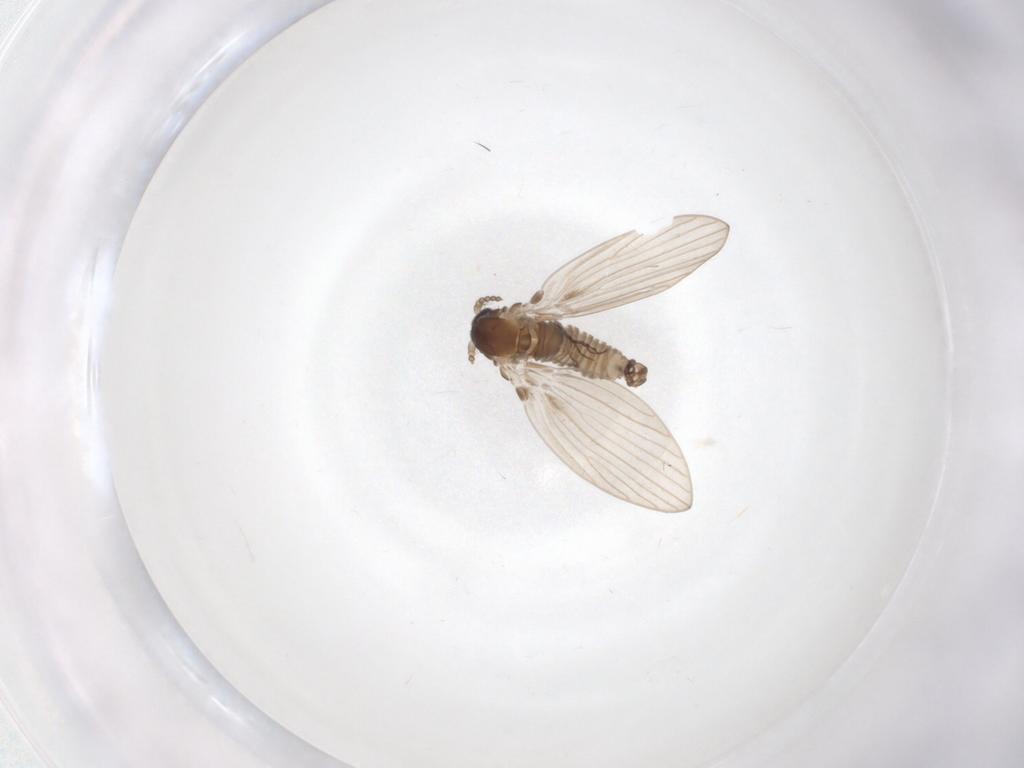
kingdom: Animalia
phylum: Arthropoda
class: Insecta
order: Diptera
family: Psychodidae
